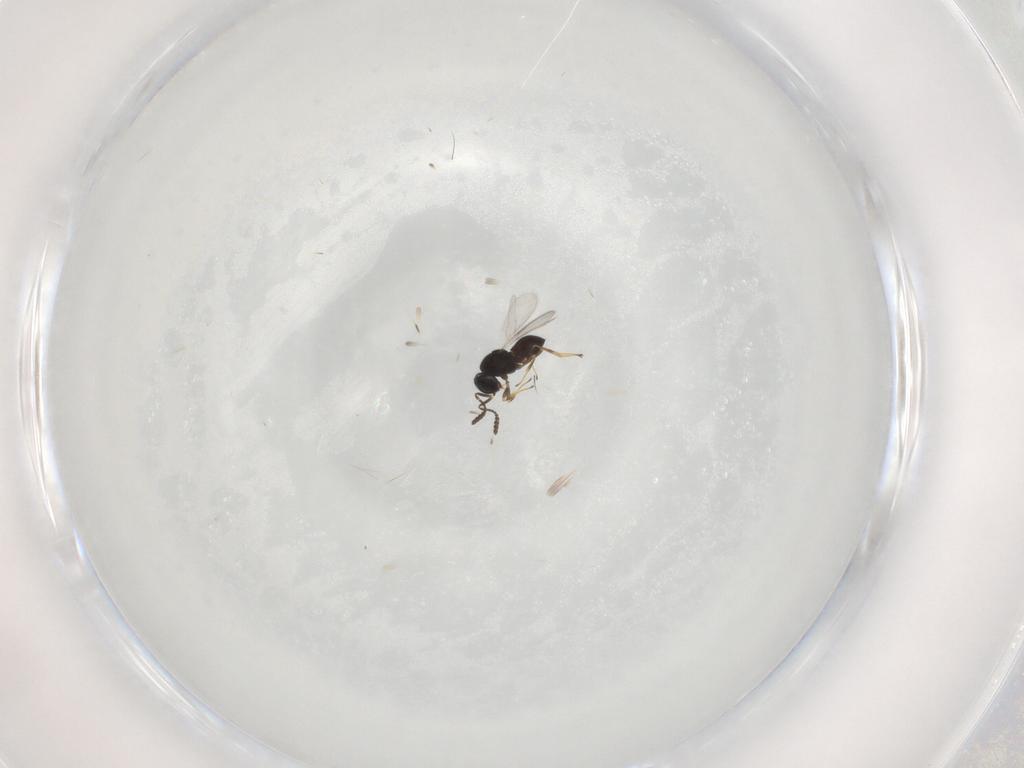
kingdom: Animalia
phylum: Arthropoda
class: Insecta
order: Hymenoptera
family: Scelionidae
